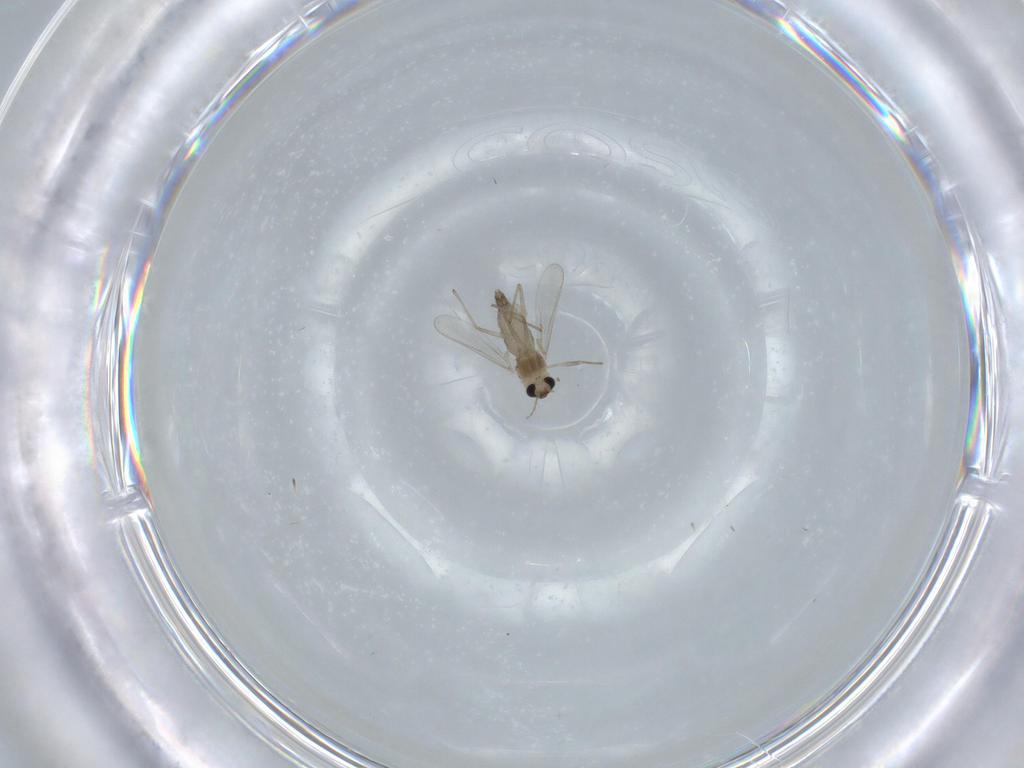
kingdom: Animalia
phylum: Arthropoda
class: Insecta
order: Diptera
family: Chironomidae
